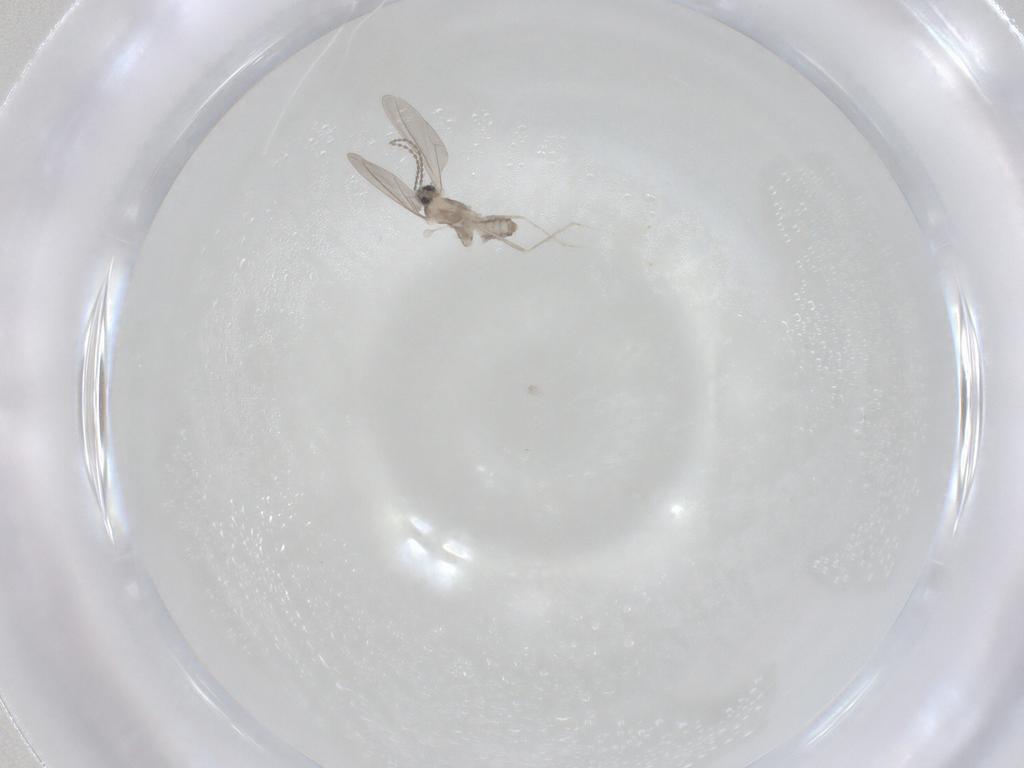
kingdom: Animalia
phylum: Arthropoda
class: Insecta
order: Diptera
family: Cecidomyiidae
